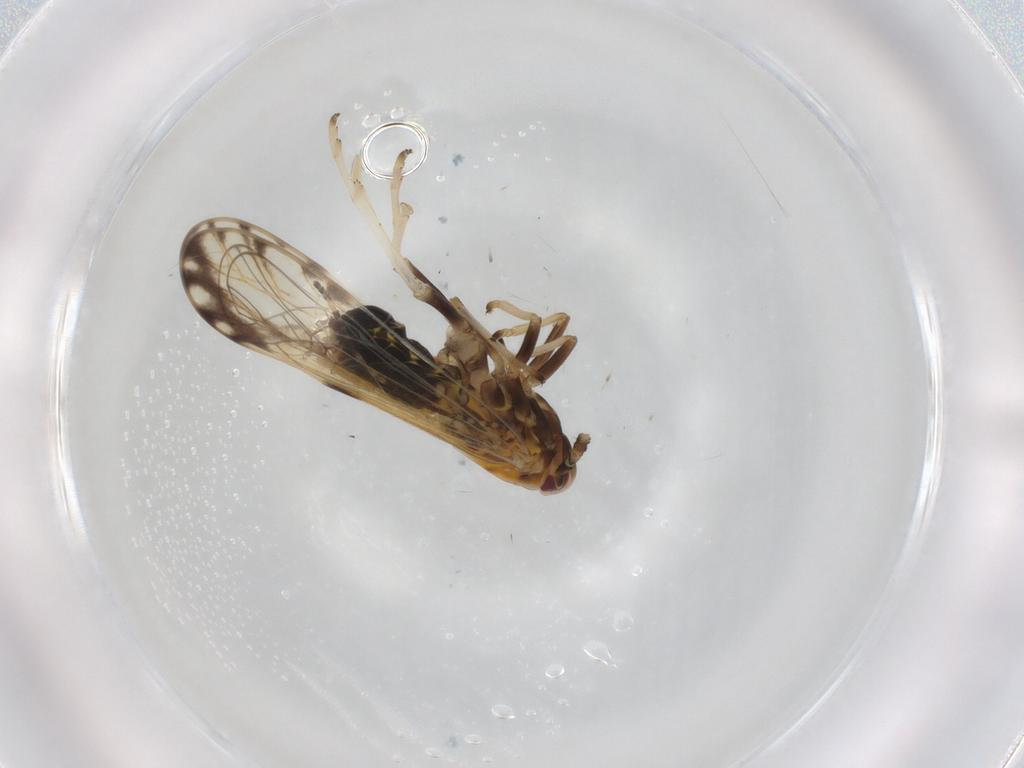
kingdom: Animalia
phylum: Arthropoda
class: Insecta
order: Hemiptera
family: Delphacidae
